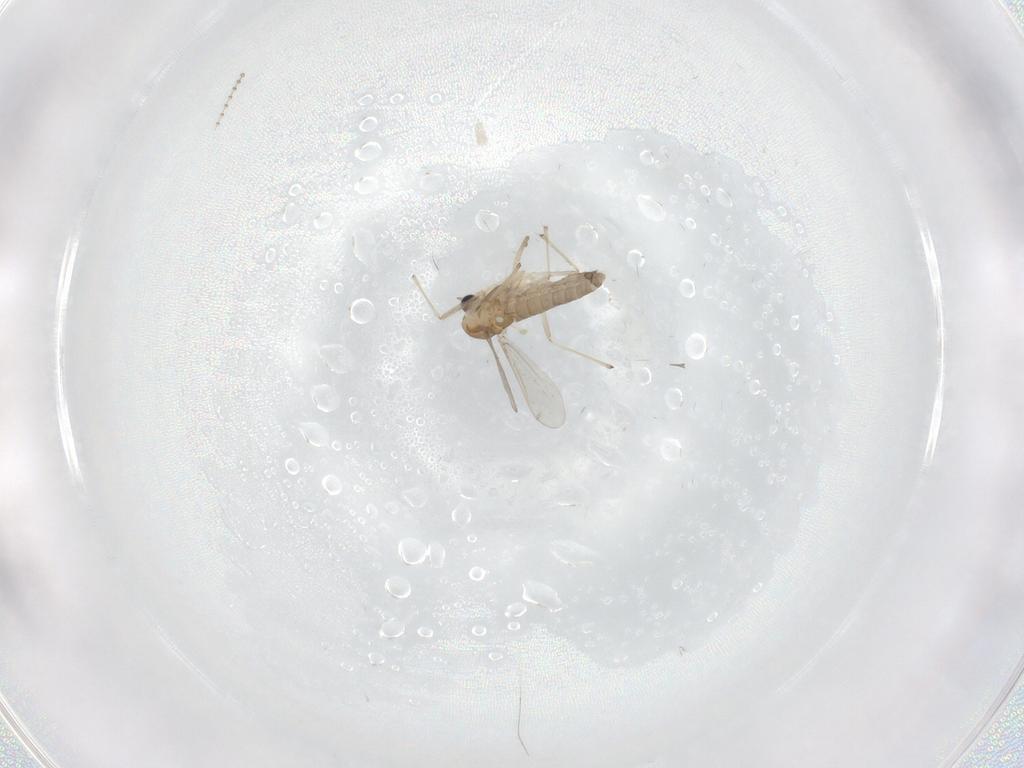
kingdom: Animalia
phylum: Arthropoda
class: Insecta
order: Diptera
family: Cecidomyiidae
